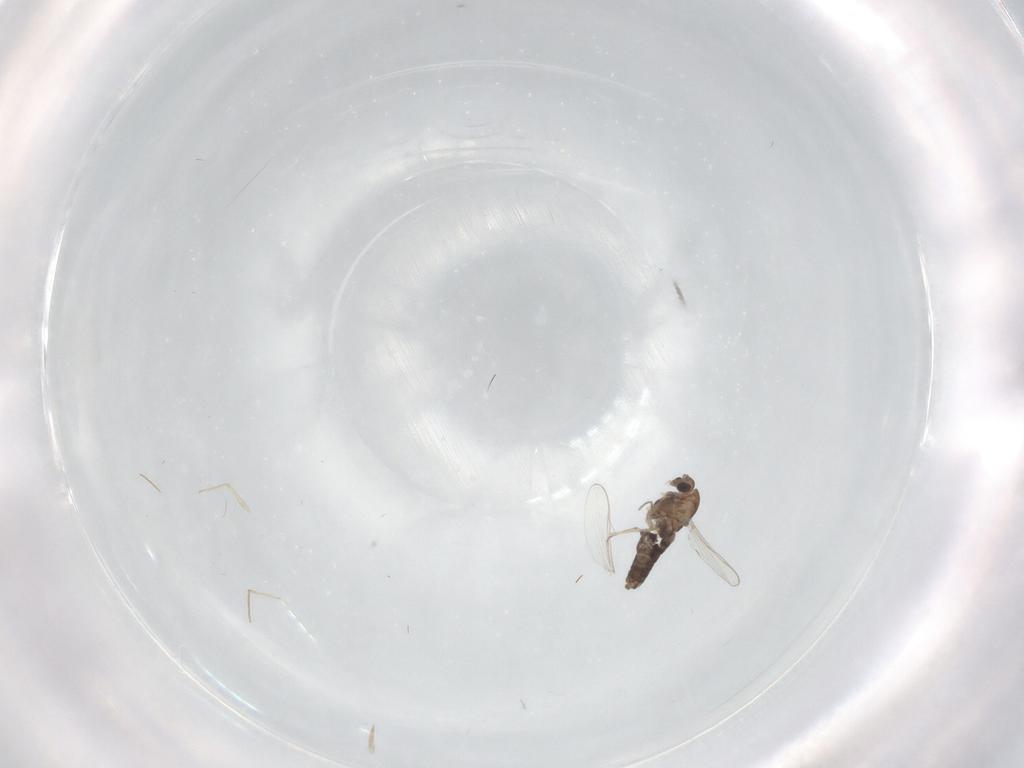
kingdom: Animalia
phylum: Arthropoda
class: Insecta
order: Diptera
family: Chironomidae
